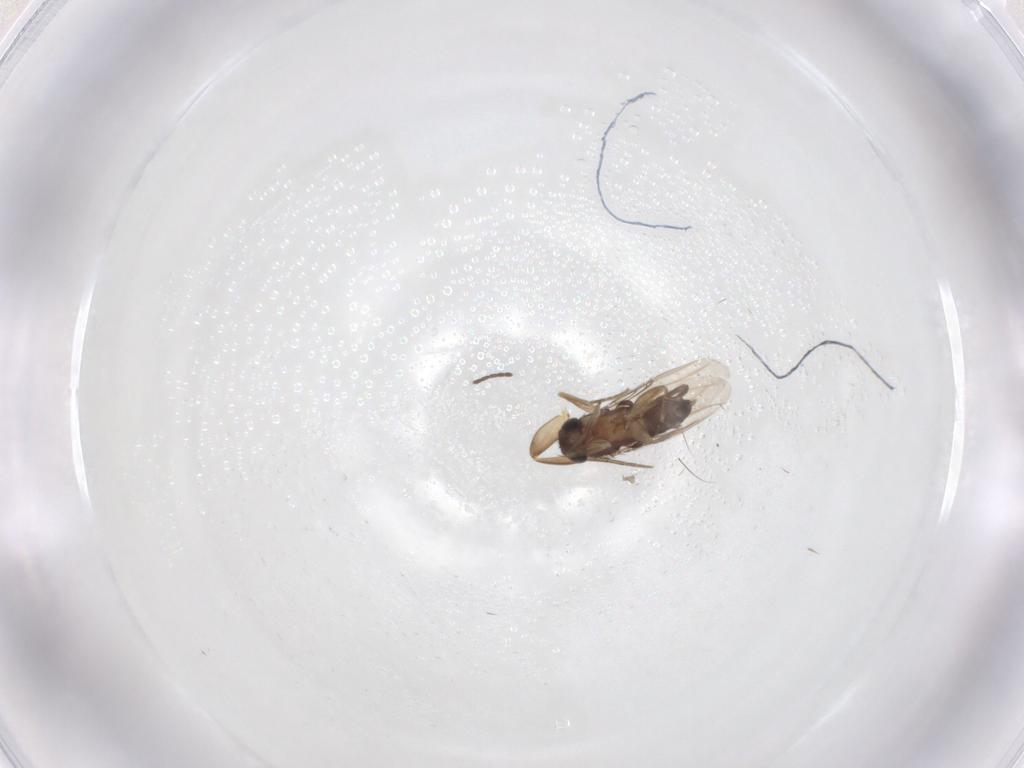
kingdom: Animalia
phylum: Arthropoda
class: Insecta
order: Diptera
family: Phoridae
